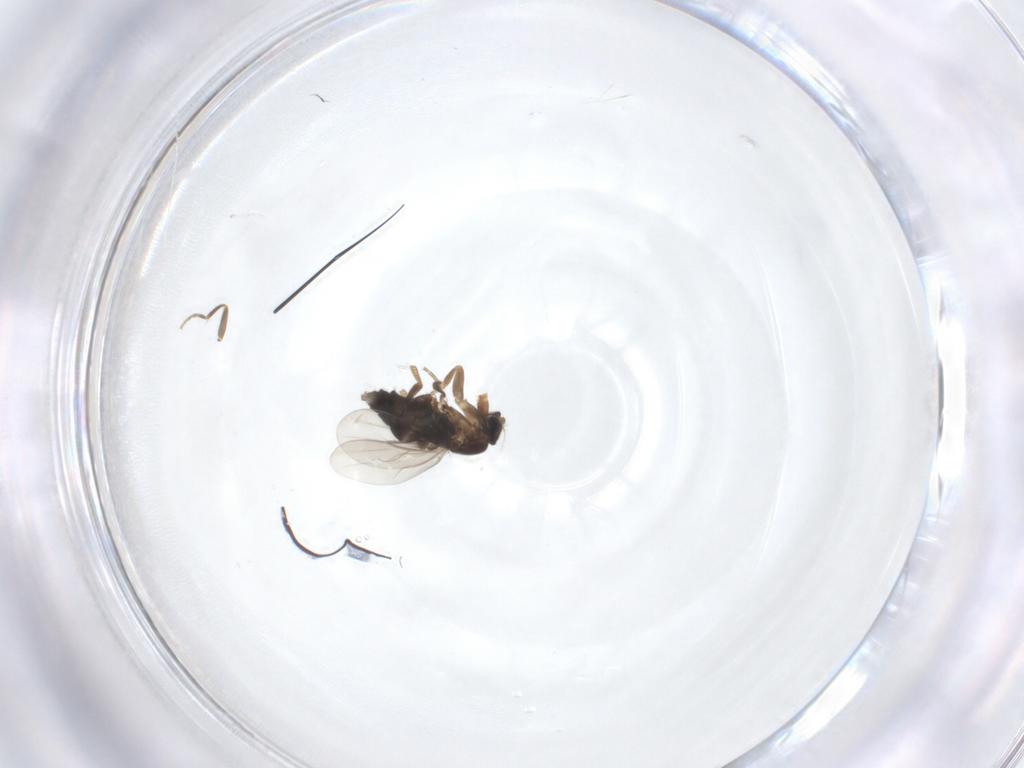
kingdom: Animalia
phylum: Arthropoda
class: Insecta
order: Diptera
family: Phoridae
